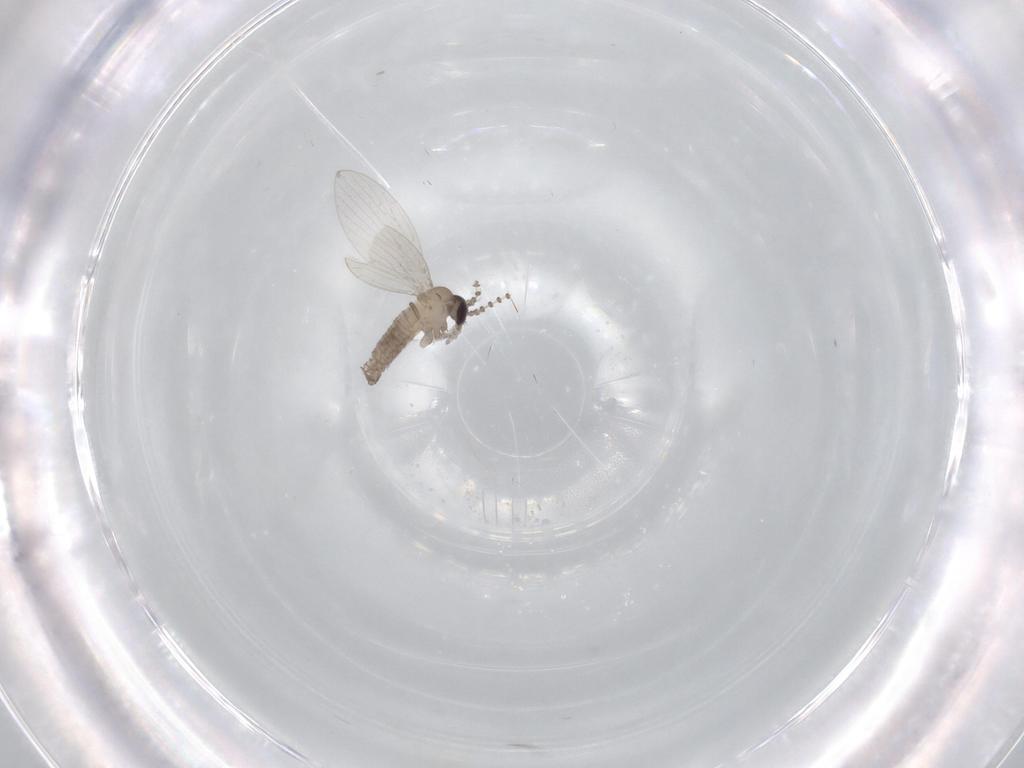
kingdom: Animalia
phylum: Arthropoda
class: Insecta
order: Diptera
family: Psychodidae
